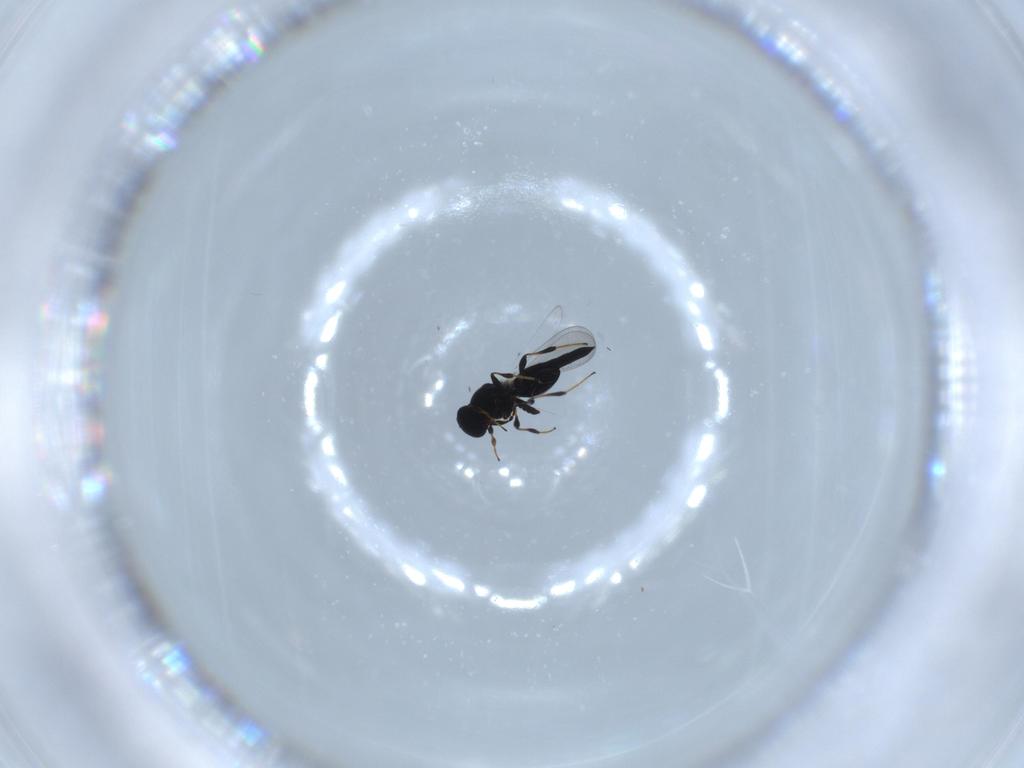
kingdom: Animalia
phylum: Arthropoda
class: Insecta
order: Hymenoptera
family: Platygastridae
